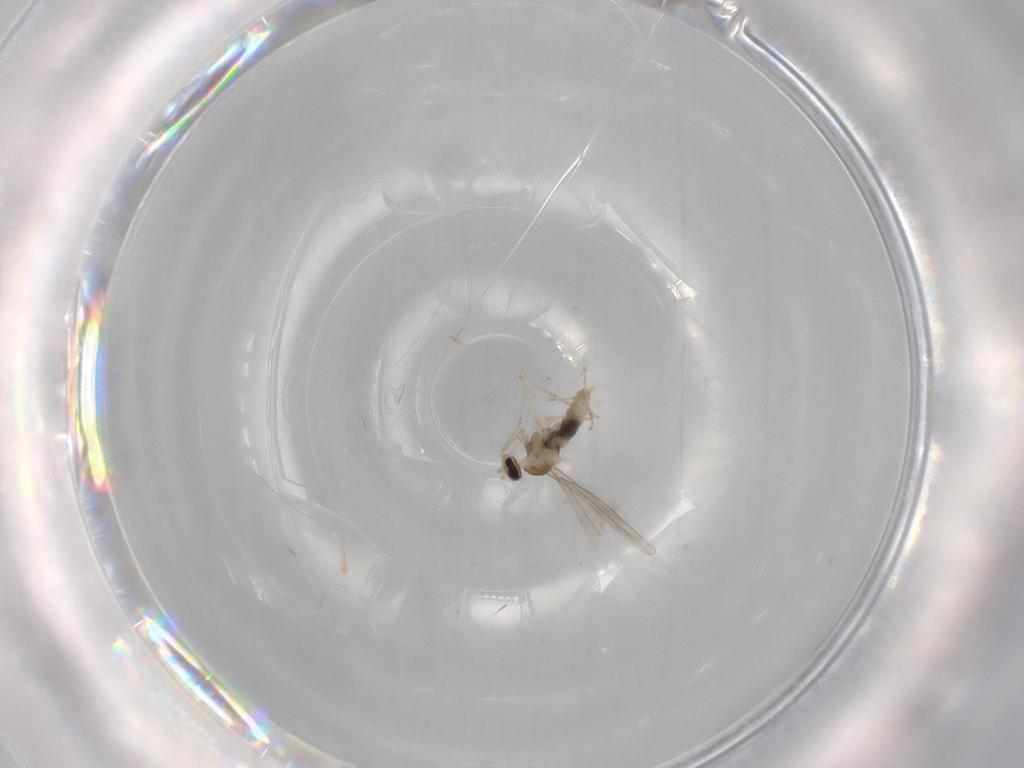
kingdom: Animalia
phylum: Arthropoda
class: Insecta
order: Diptera
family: Chironomidae
